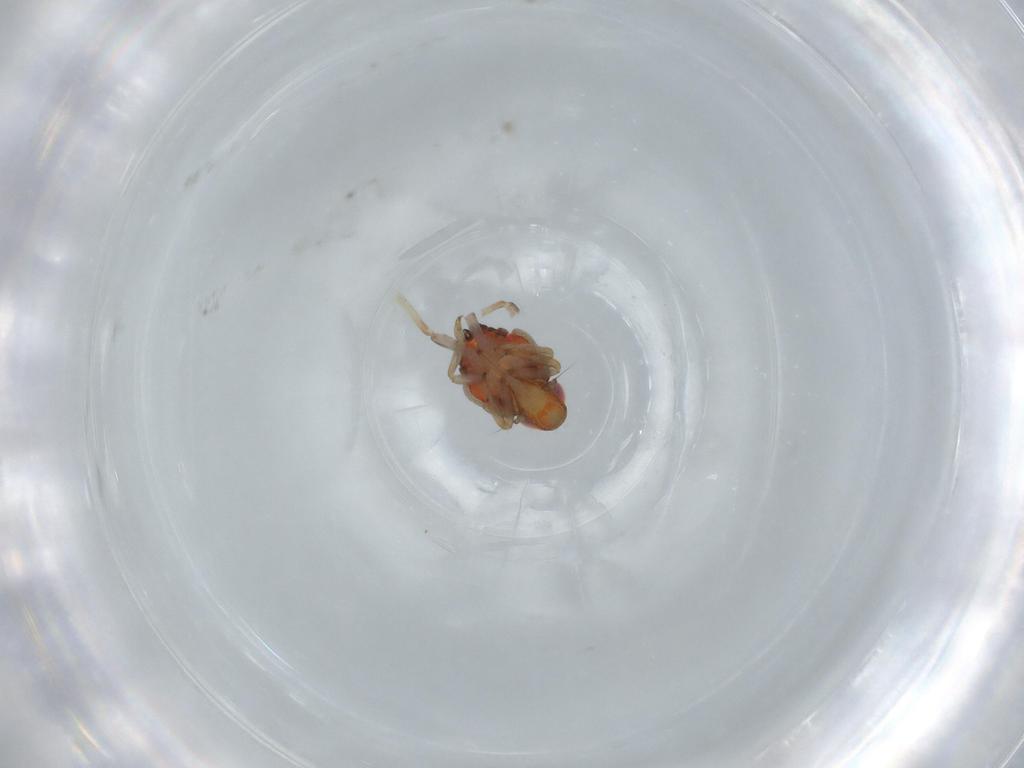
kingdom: Animalia
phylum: Arthropoda
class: Insecta
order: Hemiptera
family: Issidae
